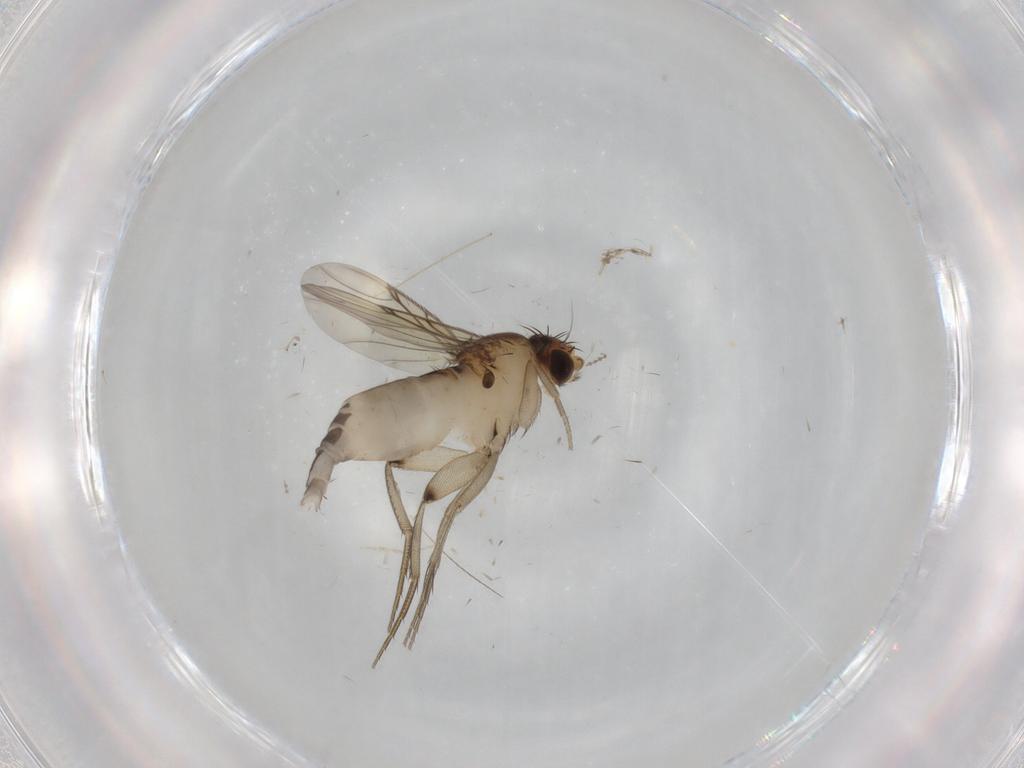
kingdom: Animalia
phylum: Arthropoda
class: Insecta
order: Diptera
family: Phoridae
